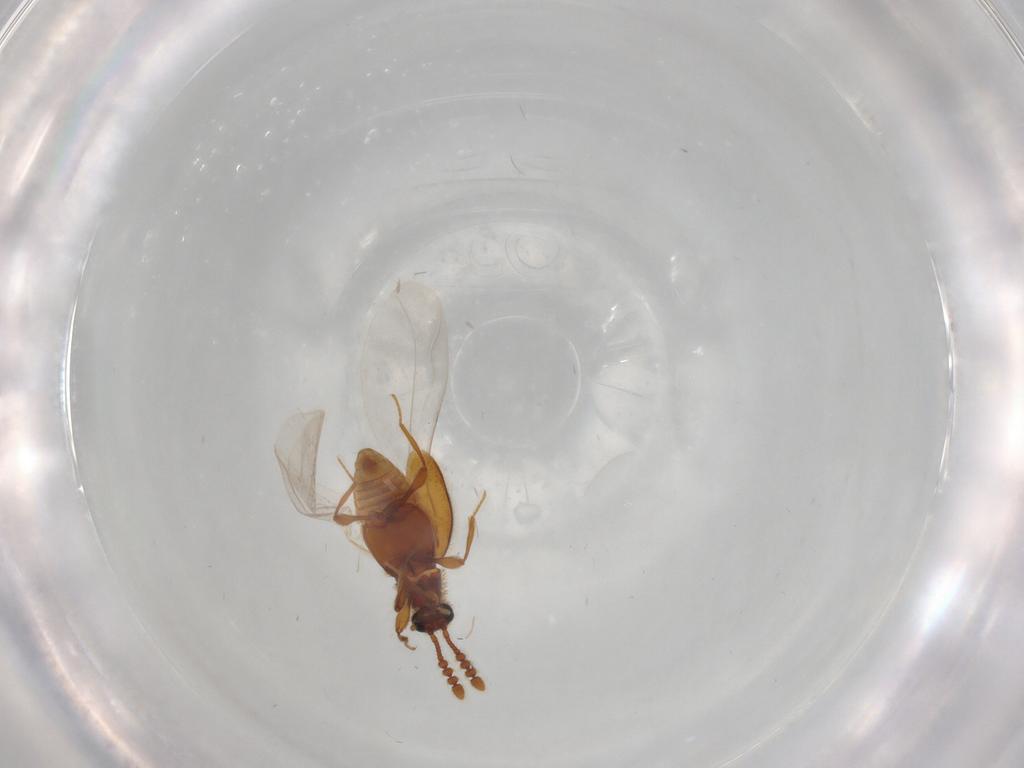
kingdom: Animalia
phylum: Arthropoda
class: Insecta
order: Coleoptera
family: Staphylinidae
